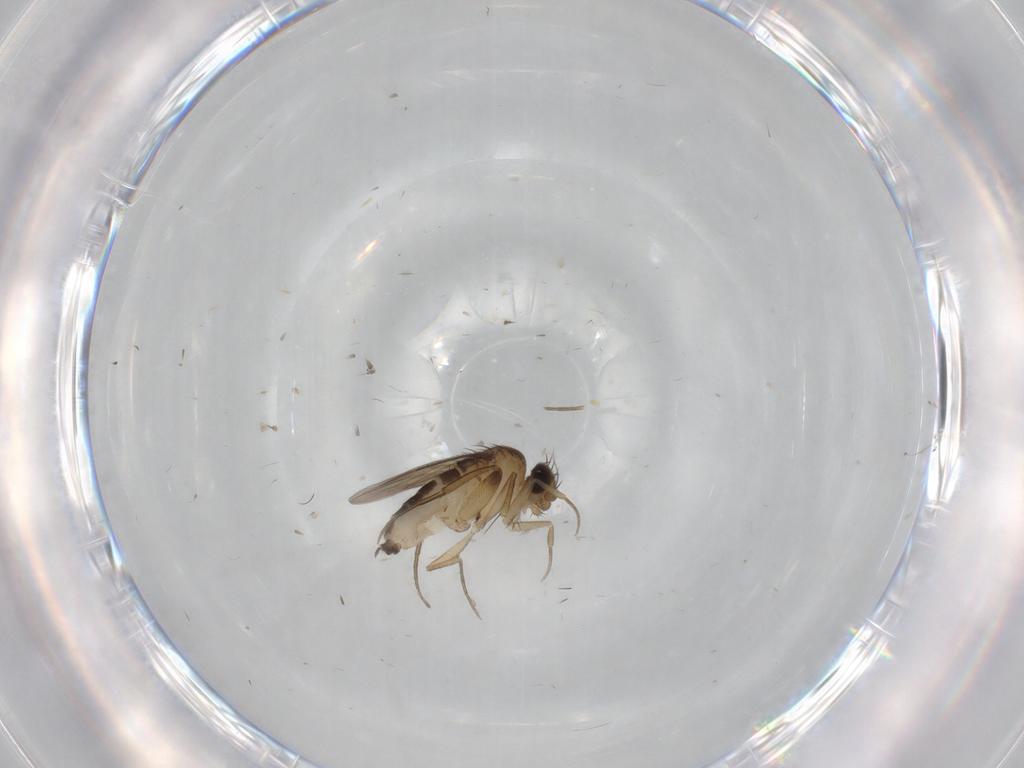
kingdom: Animalia
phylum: Arthropoda
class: Insecta
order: Diptera
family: Phoridae
